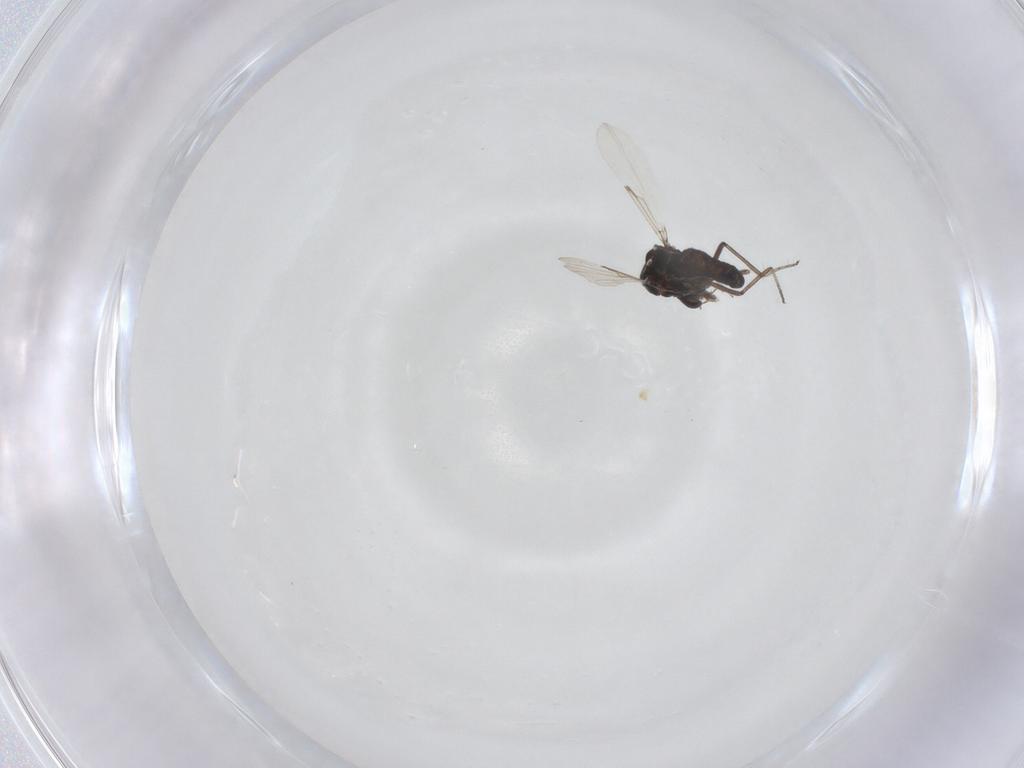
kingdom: Animalia
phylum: Arthropoda
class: Insecta
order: Diptera
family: Ceratopogonidae
